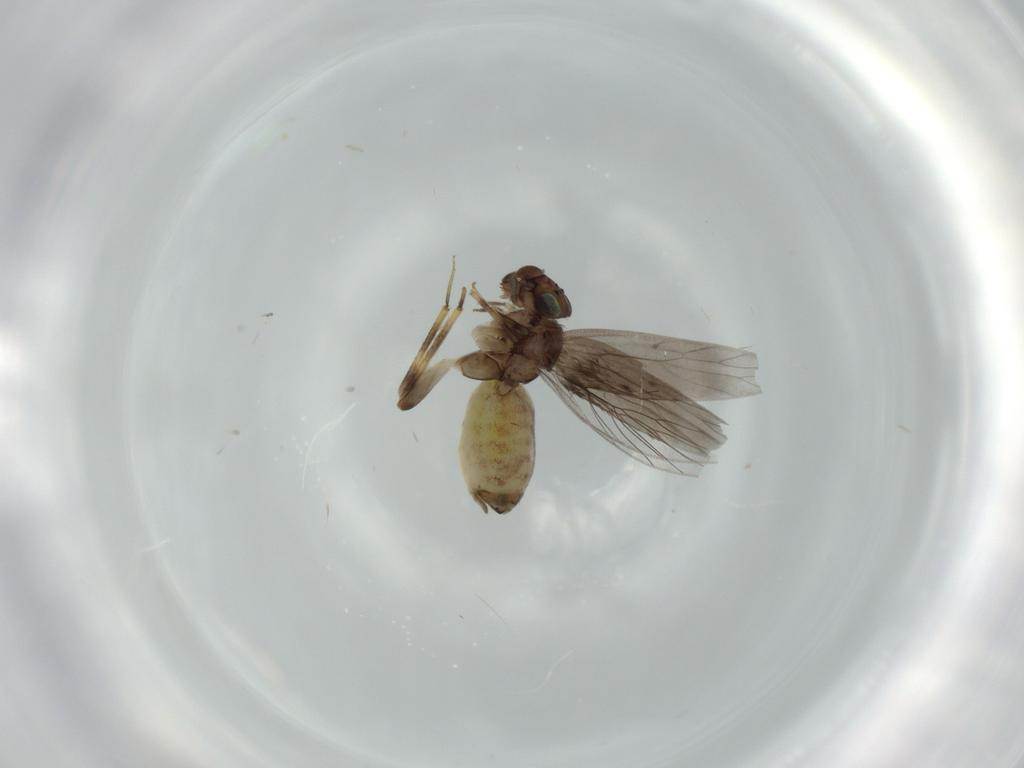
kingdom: Animalia
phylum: Arthropoda
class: Insecta
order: Psocodea
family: Lepidopsocidae
